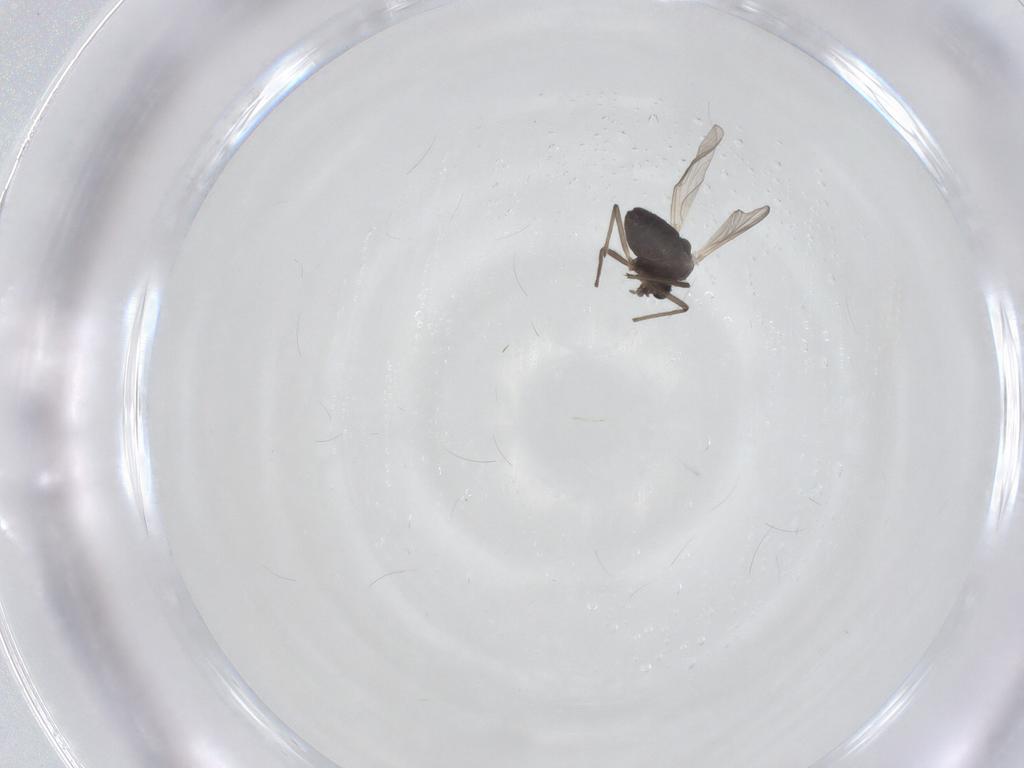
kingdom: Animalia
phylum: Arthropoda
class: Insecta
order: Diptera
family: Chironomidae
